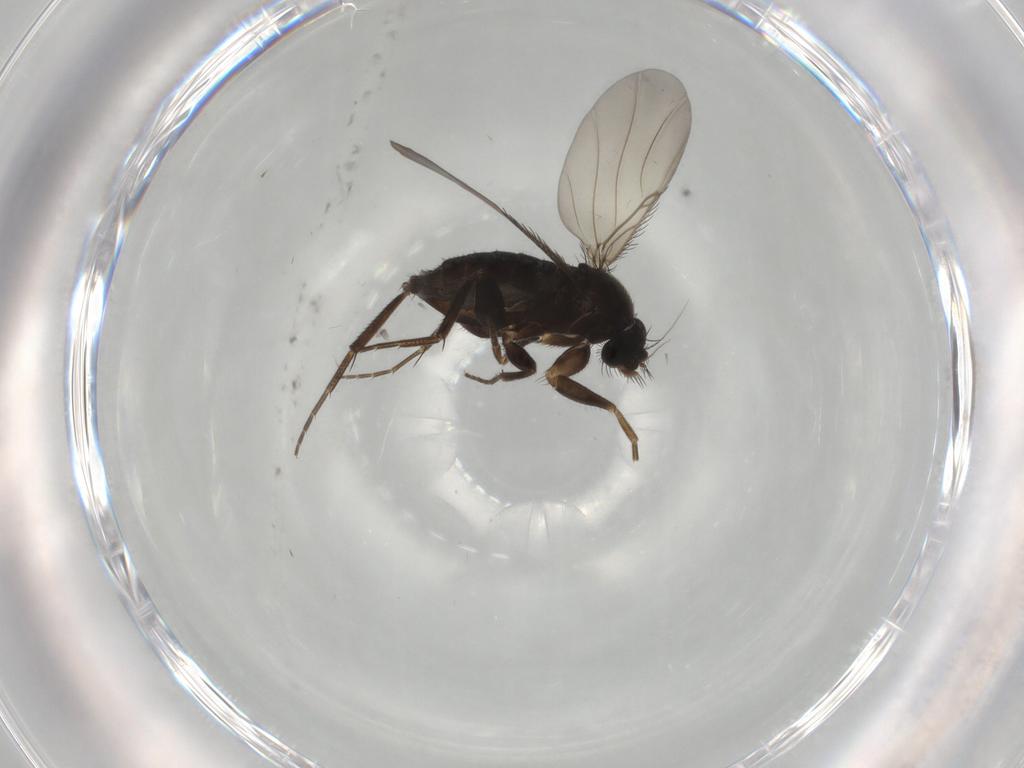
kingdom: Animalia
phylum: Arthropoda
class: Insecta
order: Diptera
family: Phoridae
